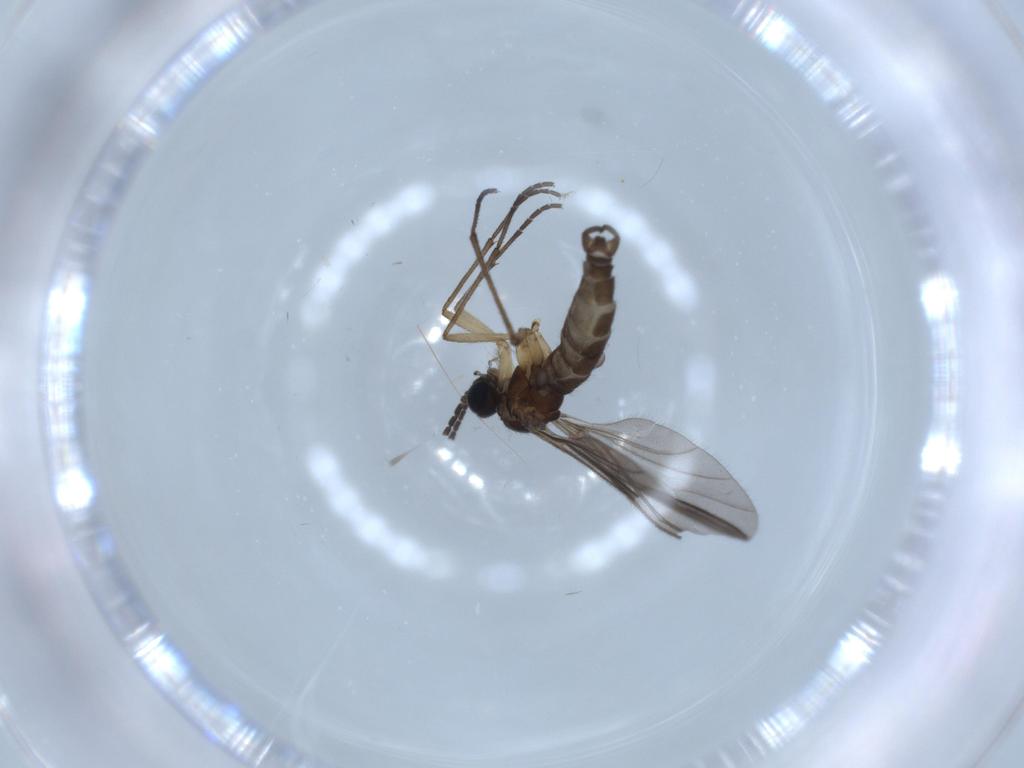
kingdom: Animalia
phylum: Arthropoda
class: Insecta
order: Diptera
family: Sciaridae
